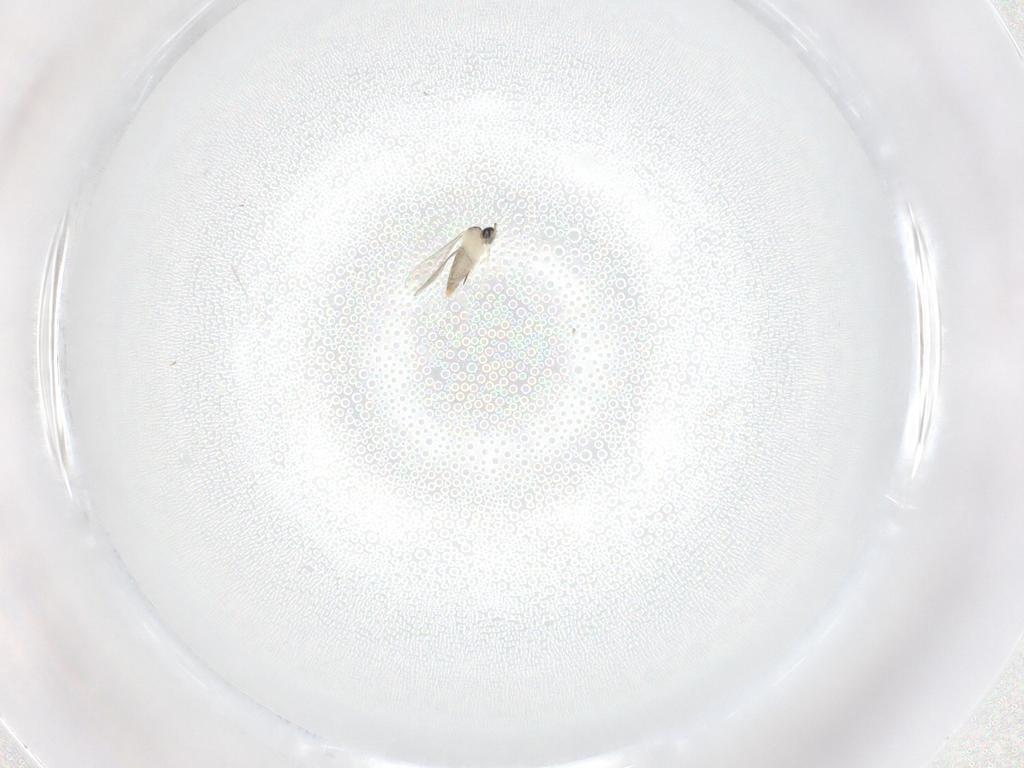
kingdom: Animalia
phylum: Arthropoda
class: Insecta
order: Diptera
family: Cecidomyiidae
